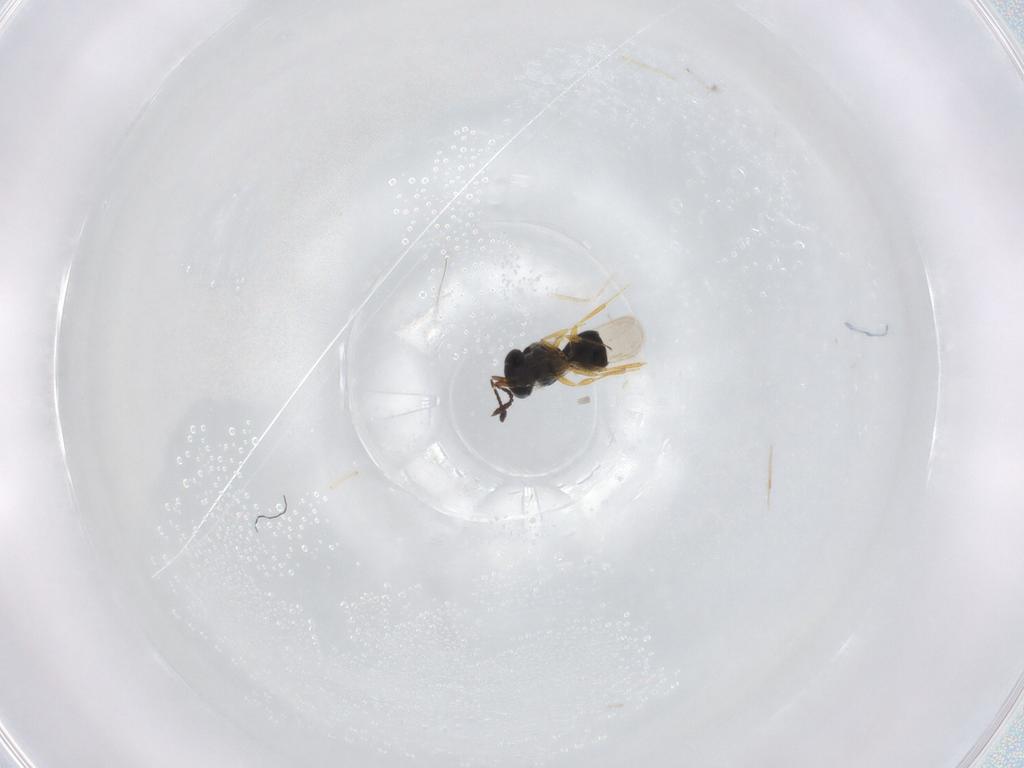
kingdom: Animalia
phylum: Arthropoda
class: Insecta
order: Hymenoptera
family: Scelionidae
